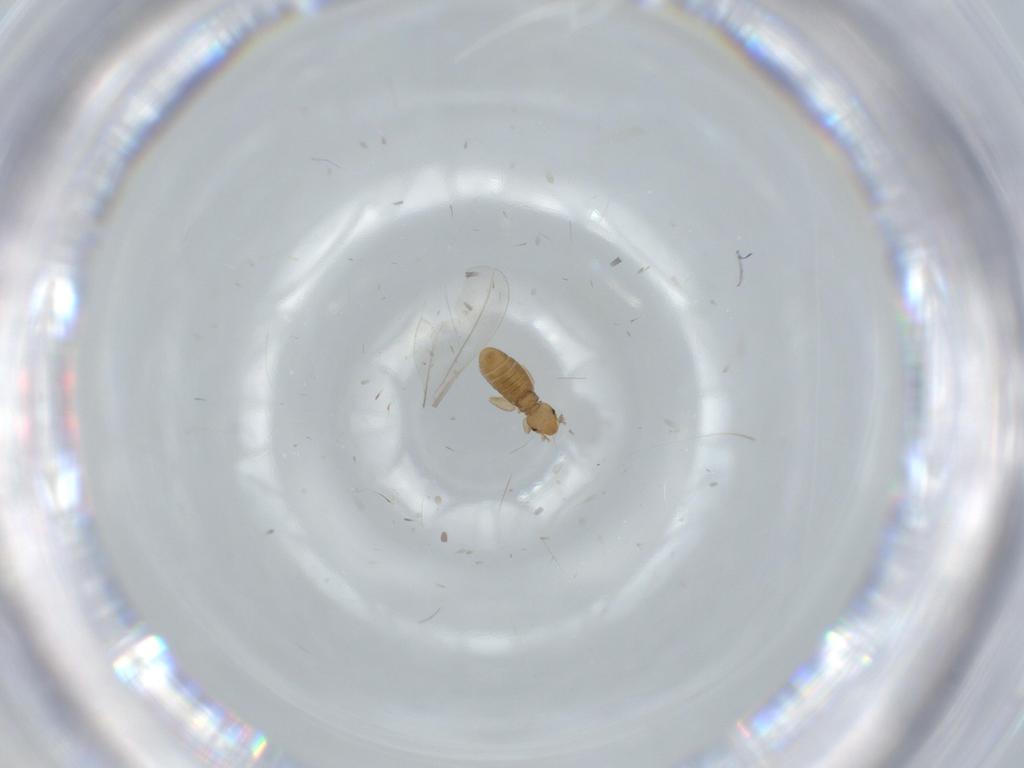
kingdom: Animalia
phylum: Arthropoda
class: Insecta
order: Psocodea
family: Liposcelididae
